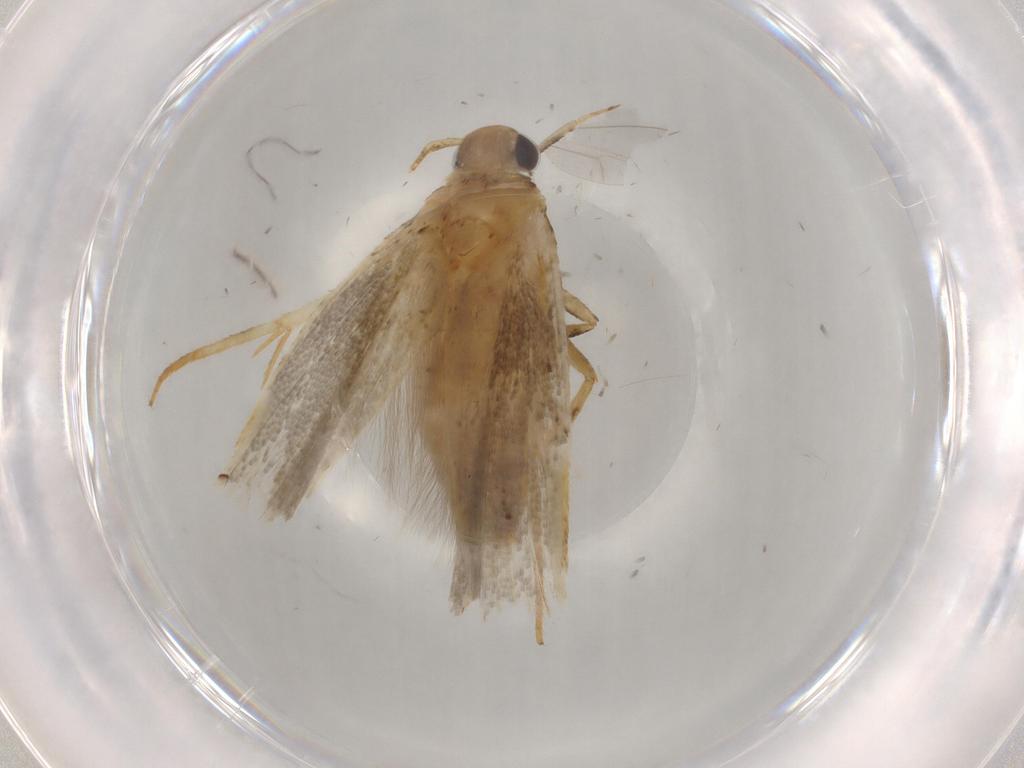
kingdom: Animalia
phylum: Arthropoda
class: Insecta
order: Lepidoptera
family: Gelechiidae
